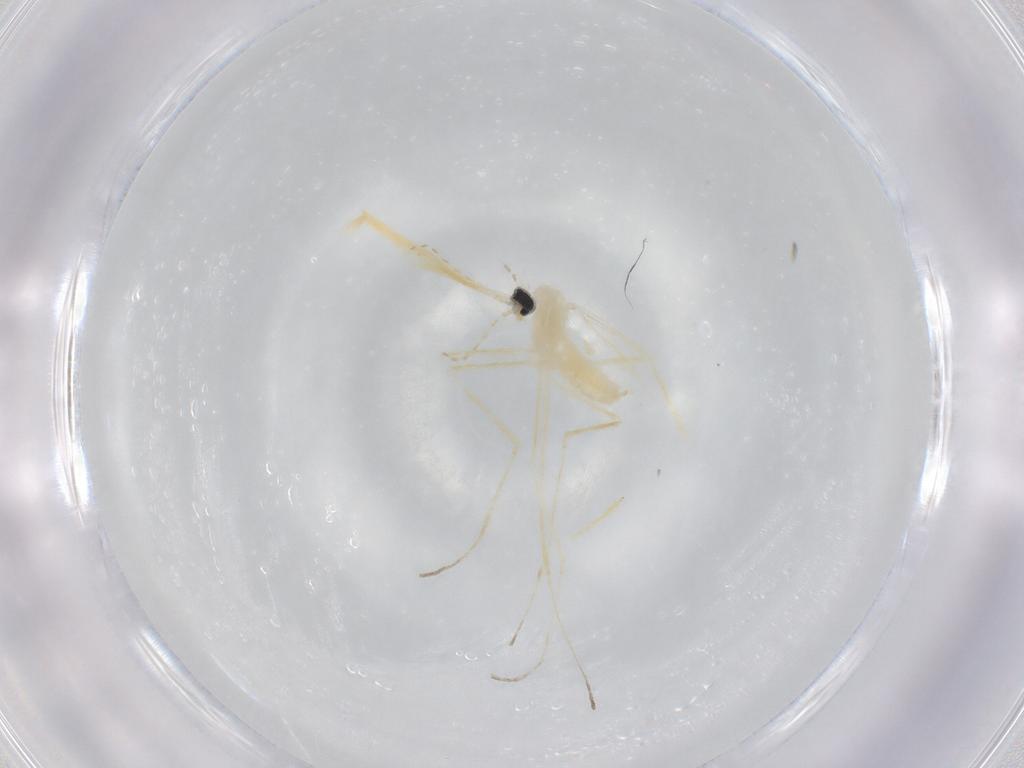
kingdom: Animalia
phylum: Arthropoda
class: Insecta
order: Diptera
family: Cecidomyiidae
